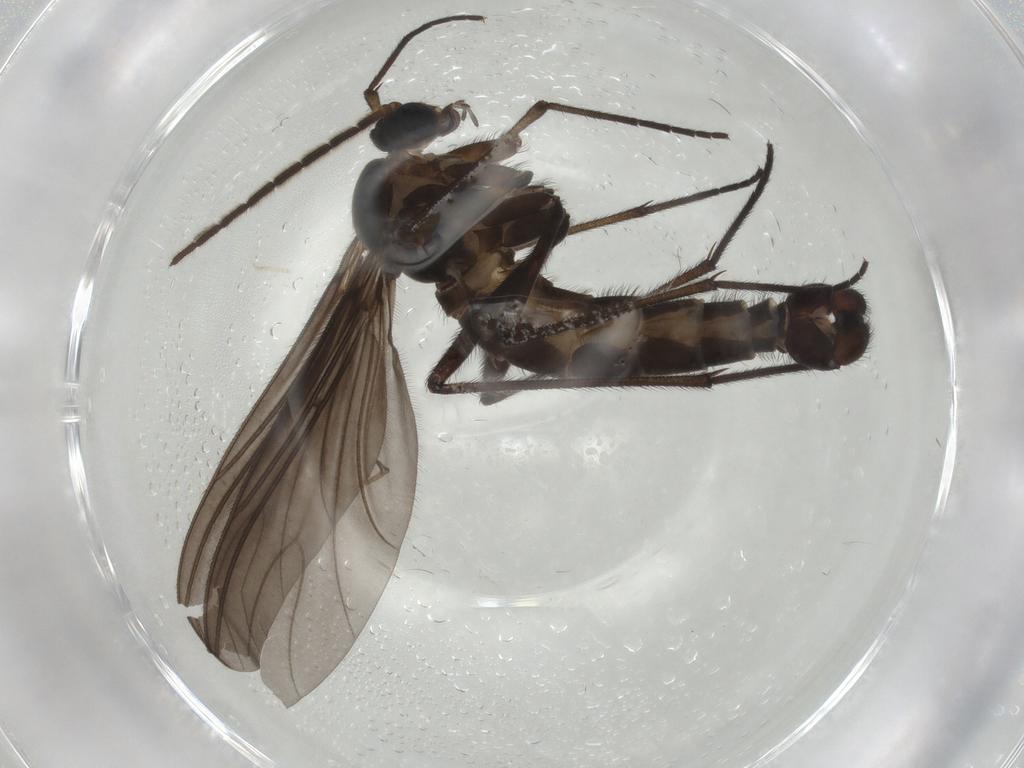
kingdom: Animalia
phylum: Arthropoda
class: Insecta
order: Diptera
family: Sciaridae
